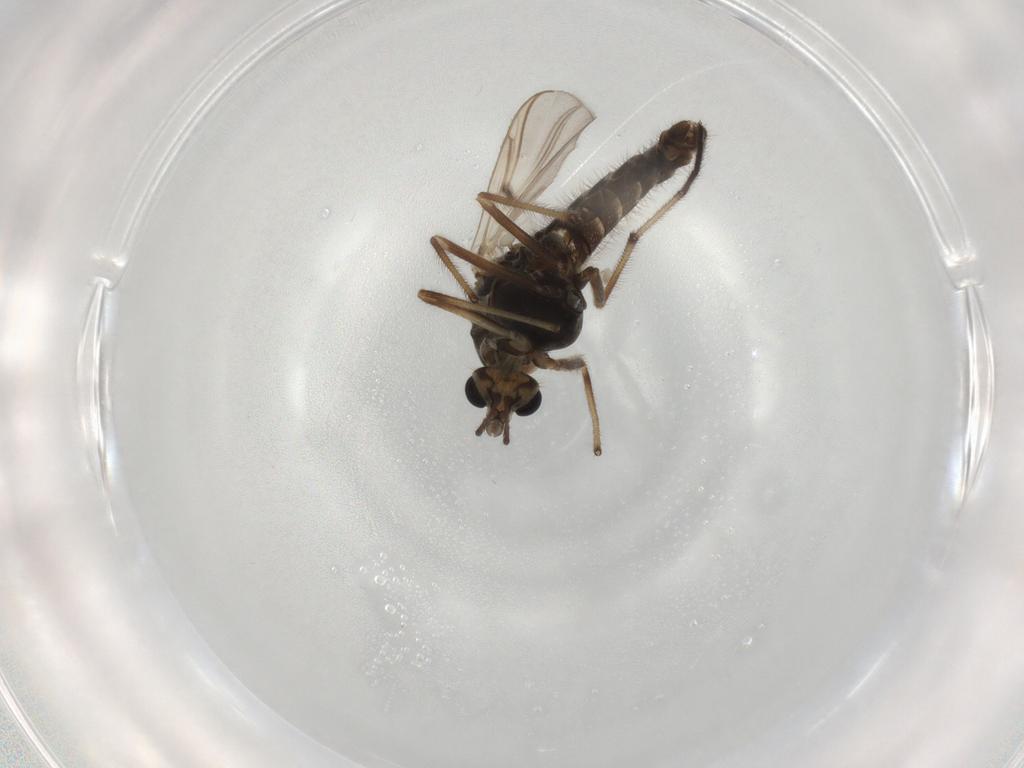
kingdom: Animalia
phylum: Arthropoda
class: Insecta
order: Diptera
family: Chironomidae
